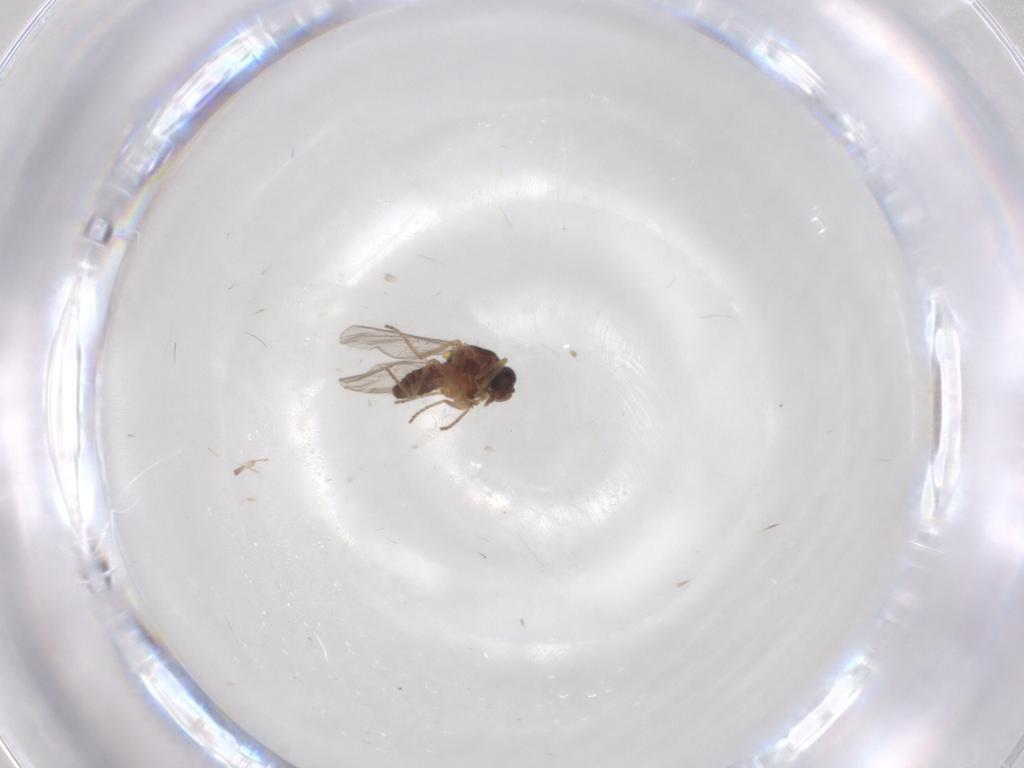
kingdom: Animalia
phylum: Arthropoda
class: Insecta
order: Diptera
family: Ceratopogonidae
